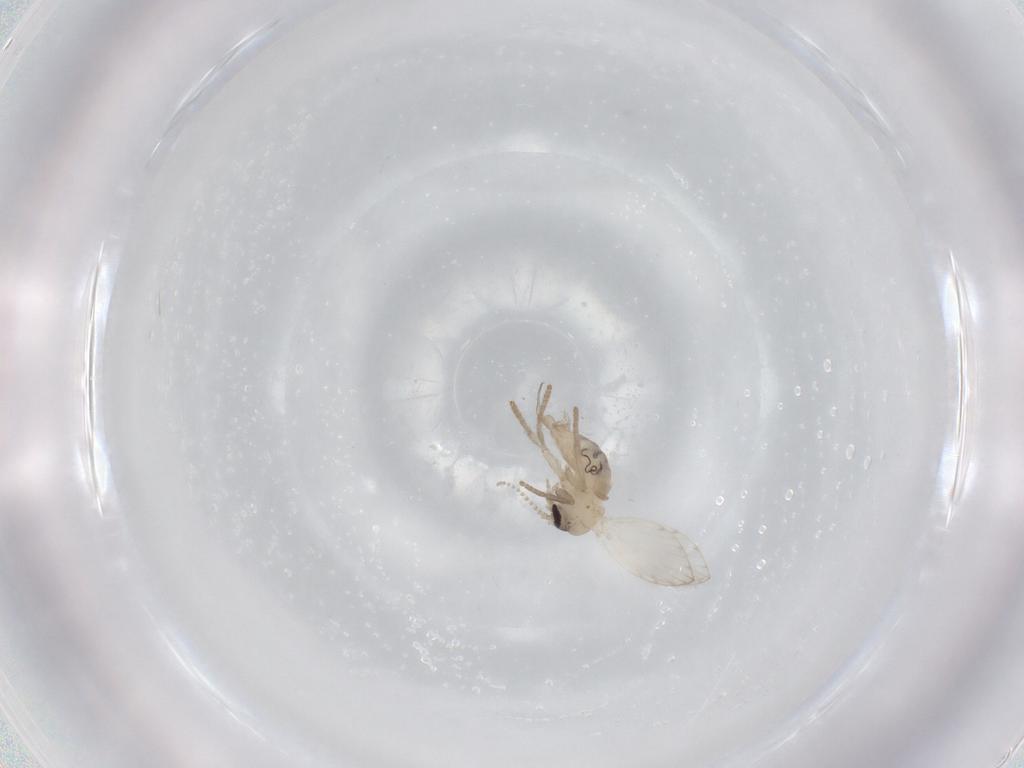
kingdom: Animalia
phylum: Arthropoda
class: Insecta
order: Diptera
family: Psychodidae
